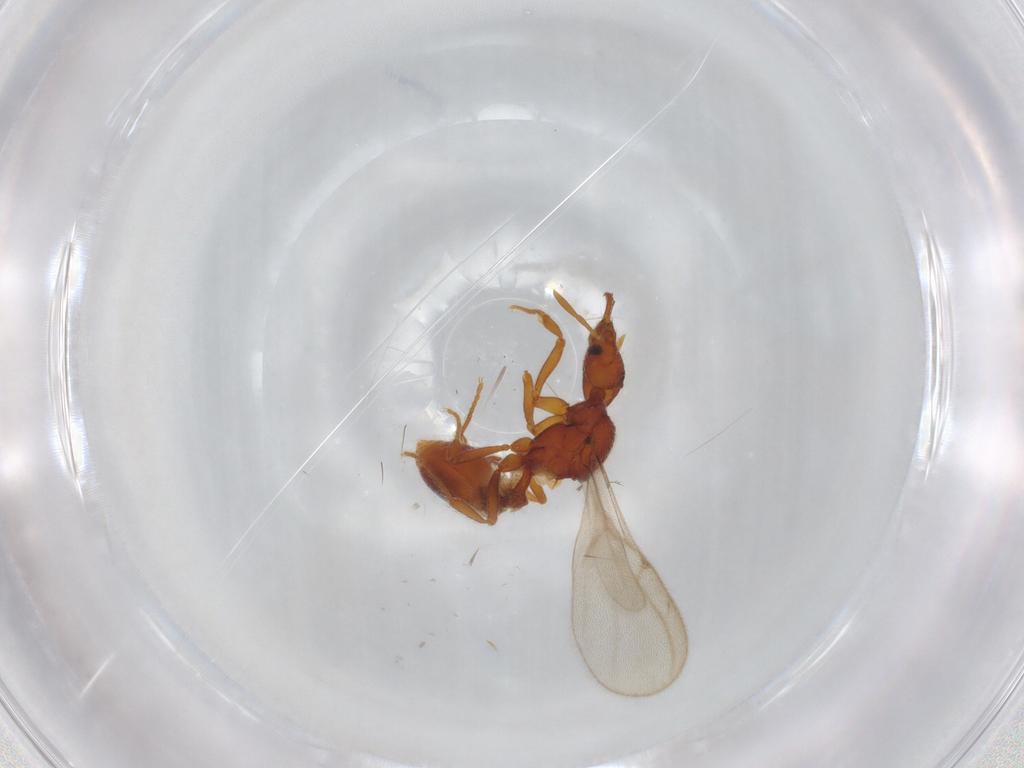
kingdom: Animalia
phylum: Arthropoda
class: Insecta
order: Hymenoptera
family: Formicidae
